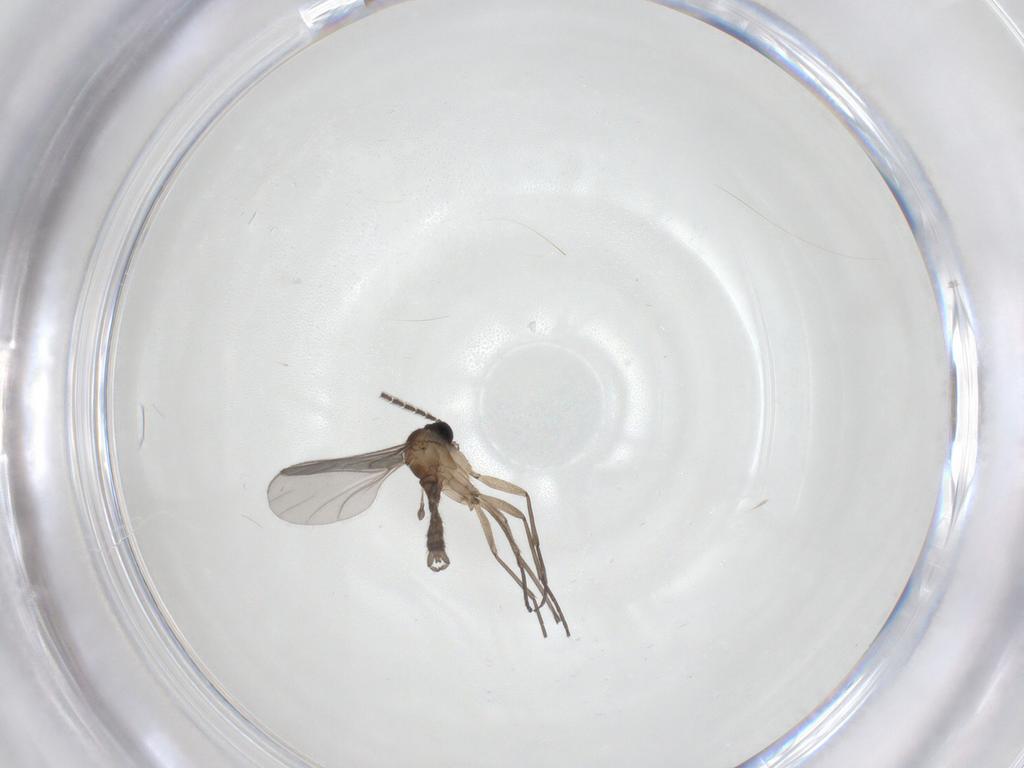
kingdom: Animalia
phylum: Arthropoda
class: Insecta
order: Diptera
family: Sciaridae
